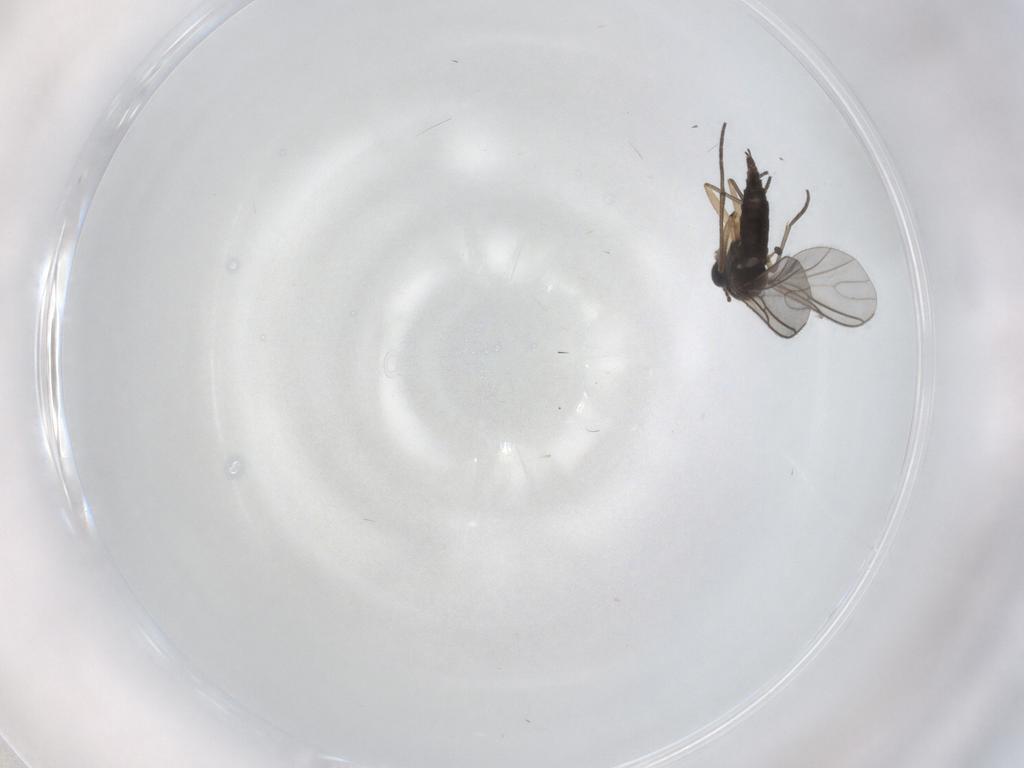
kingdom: Animalia
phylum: Arthropoda
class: Insecta
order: Diptera
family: Sciaridae
